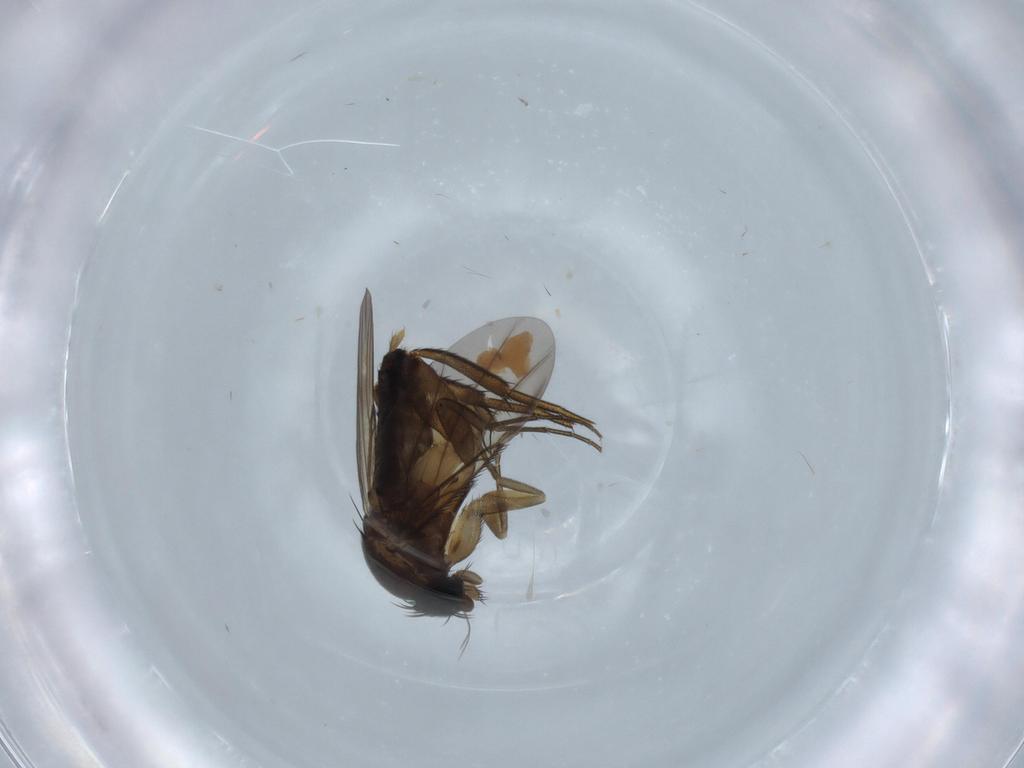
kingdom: Animalia
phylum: Arthropoda
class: Insecta
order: Diptera
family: Phoridae
